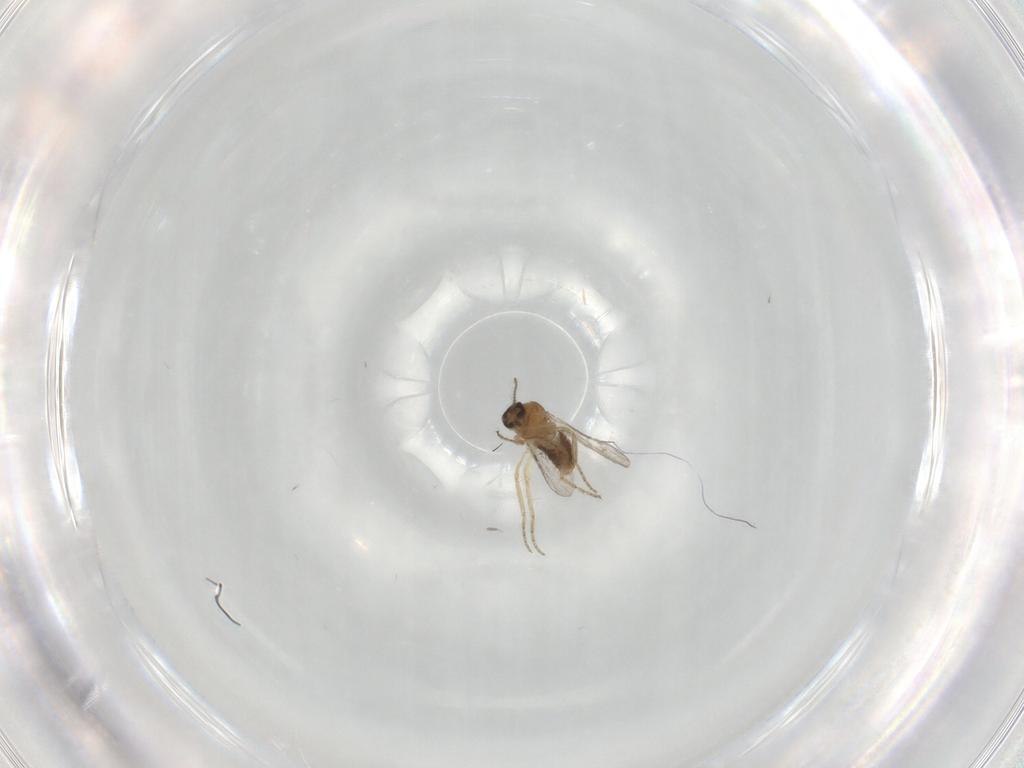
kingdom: Animalia
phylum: Arthropoda
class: Insecta
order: Diptera
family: Ceratopogonidae
